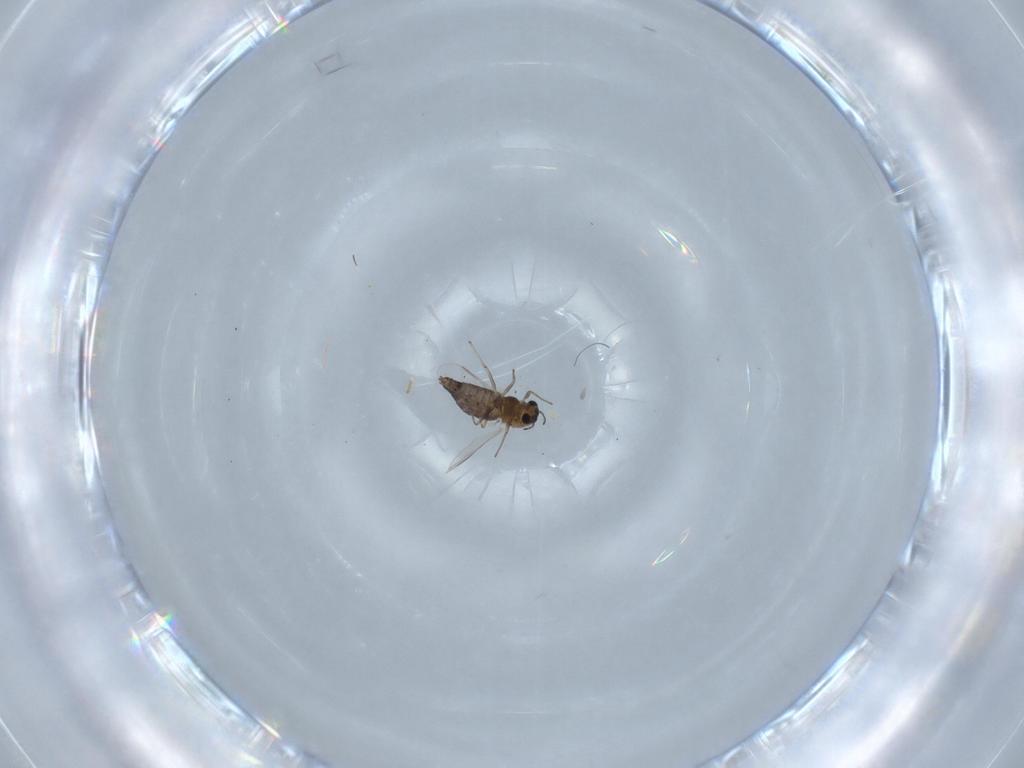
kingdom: Animalia
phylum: Arthropoda
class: Insecta
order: Diptera
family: Chironomidae
